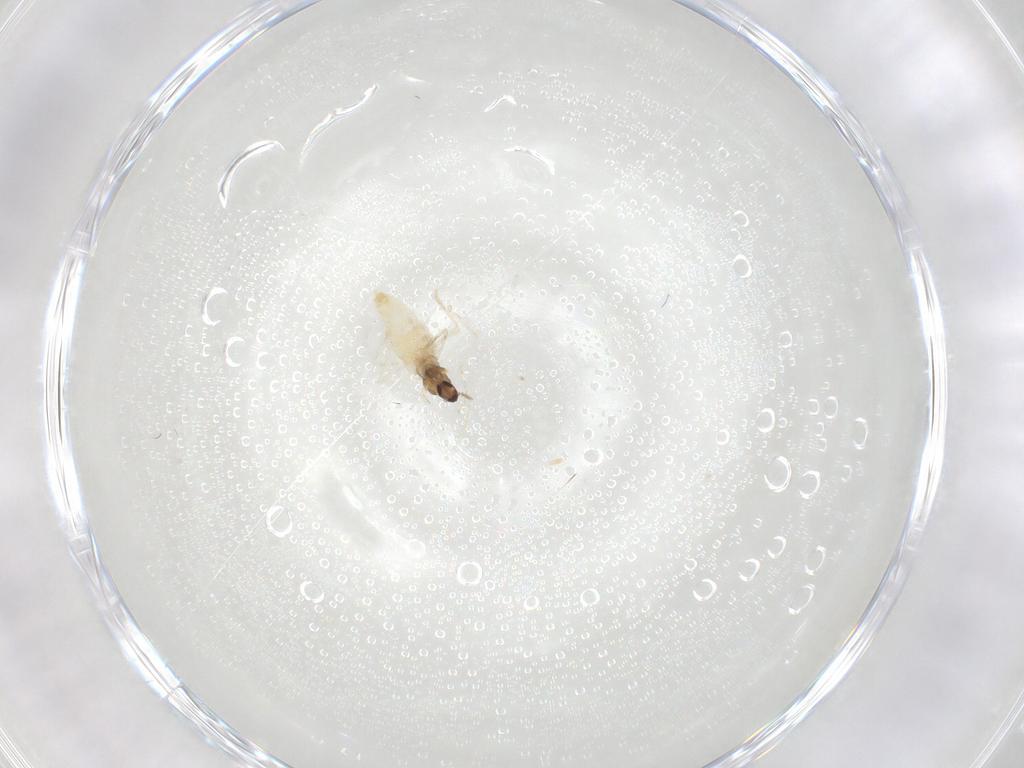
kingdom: Animalia
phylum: Arthropoda
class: Insecta
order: Diptera
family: Cecidomyiidae
